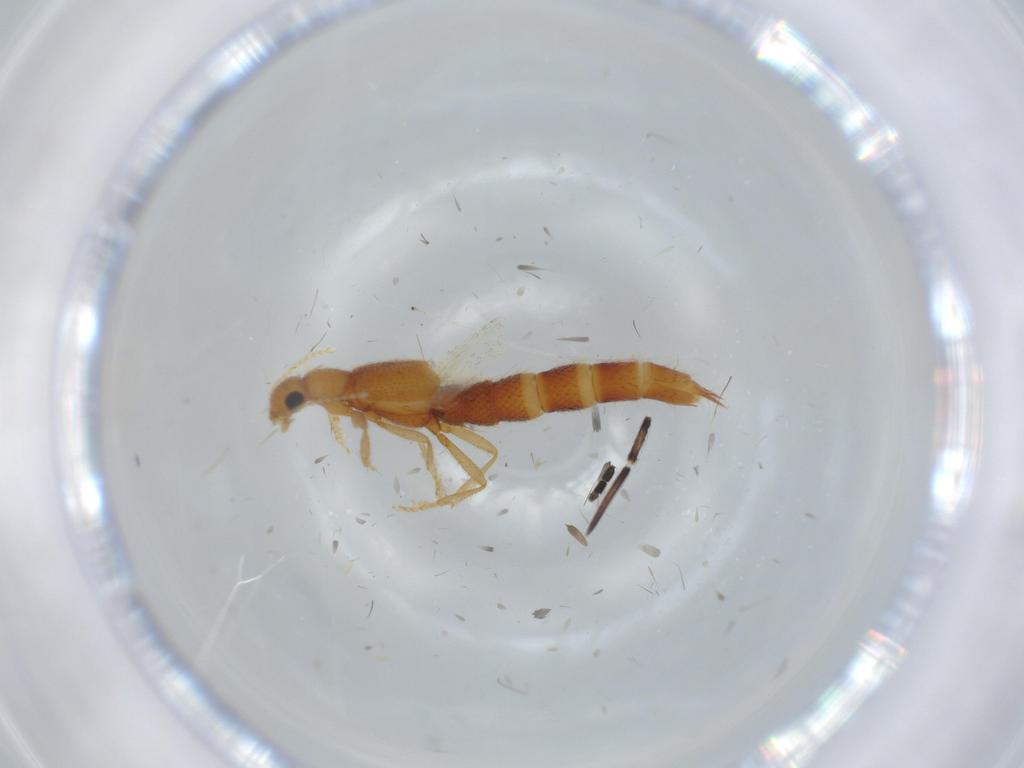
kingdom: Animalia
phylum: Arthropoda
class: Insecta
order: Coleoptera
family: Staphylinidae
